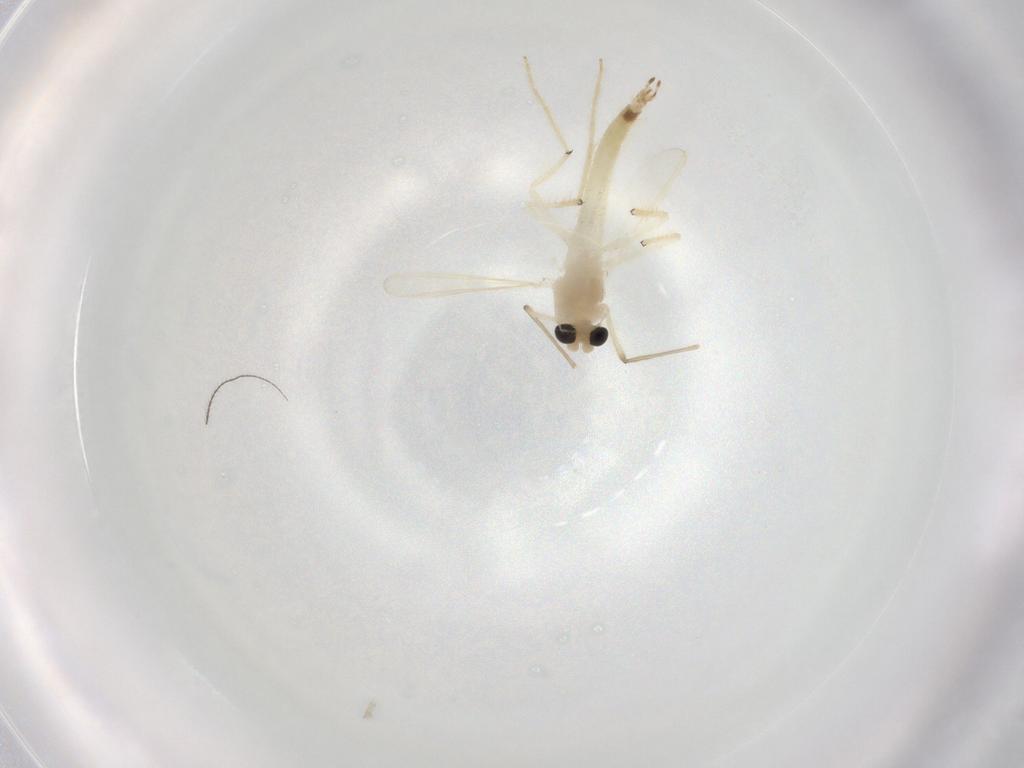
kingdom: Animalia
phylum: Arthropoda
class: Insecta
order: Diptera
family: Chironomidae
